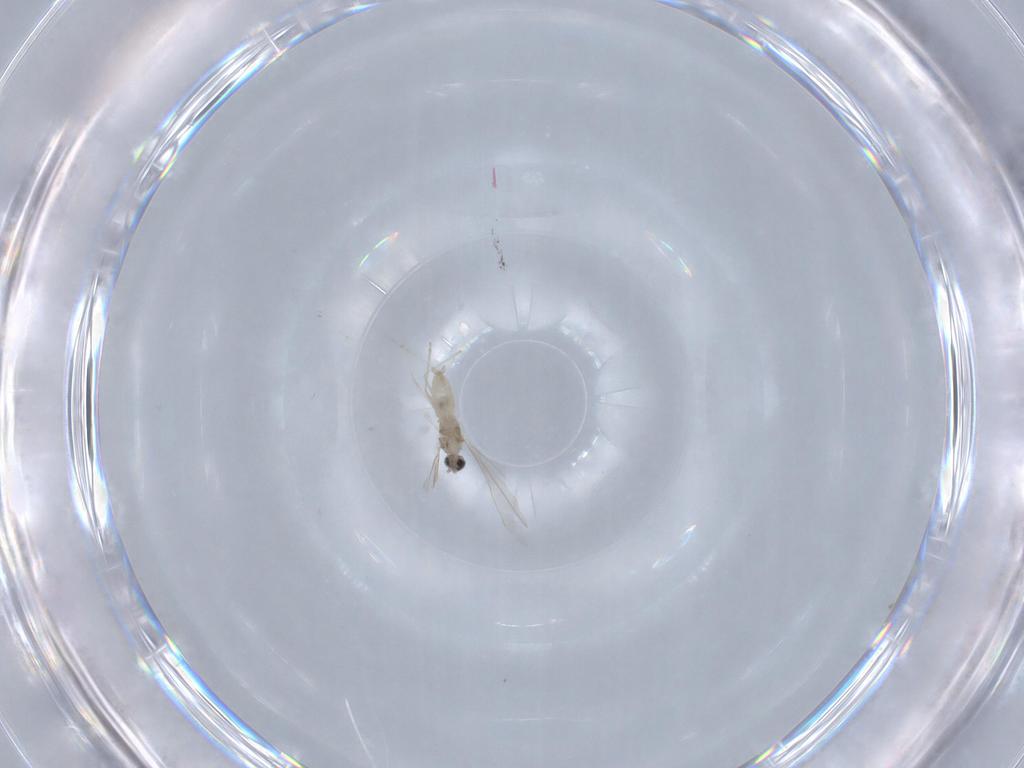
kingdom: Animalia
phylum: Arthropoda
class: Insecta
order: Diptera
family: Cecidomyiidae
